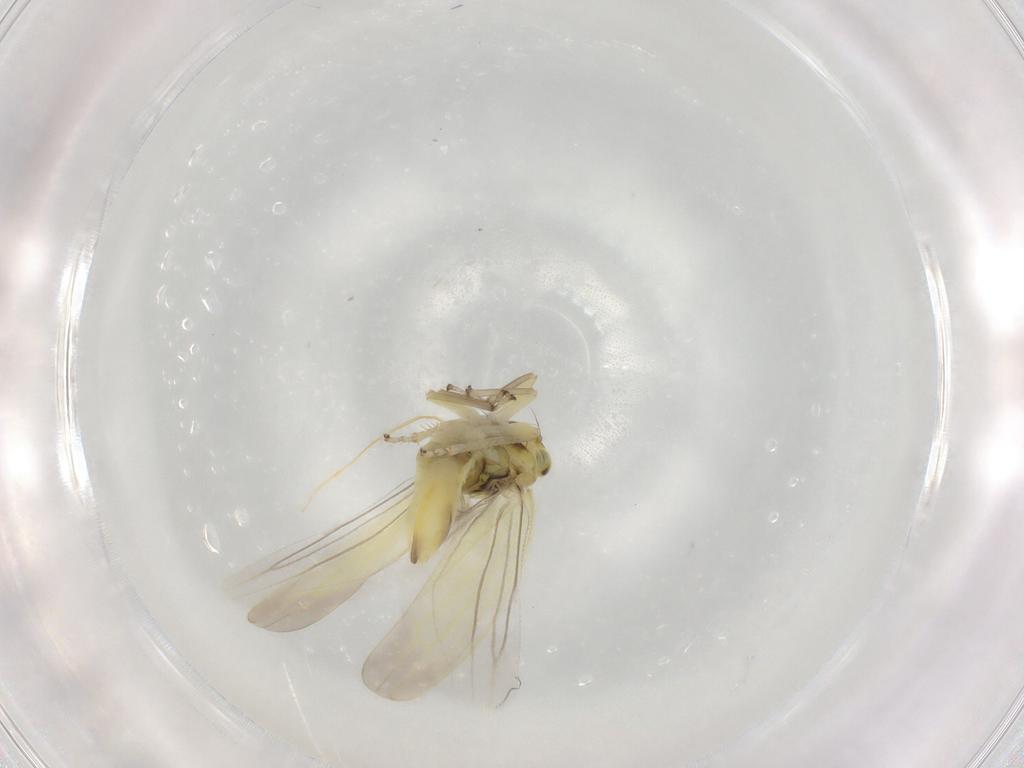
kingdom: Animalia
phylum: Arthropoda
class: Insecta
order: Hemiptera
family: Cicadellidae
